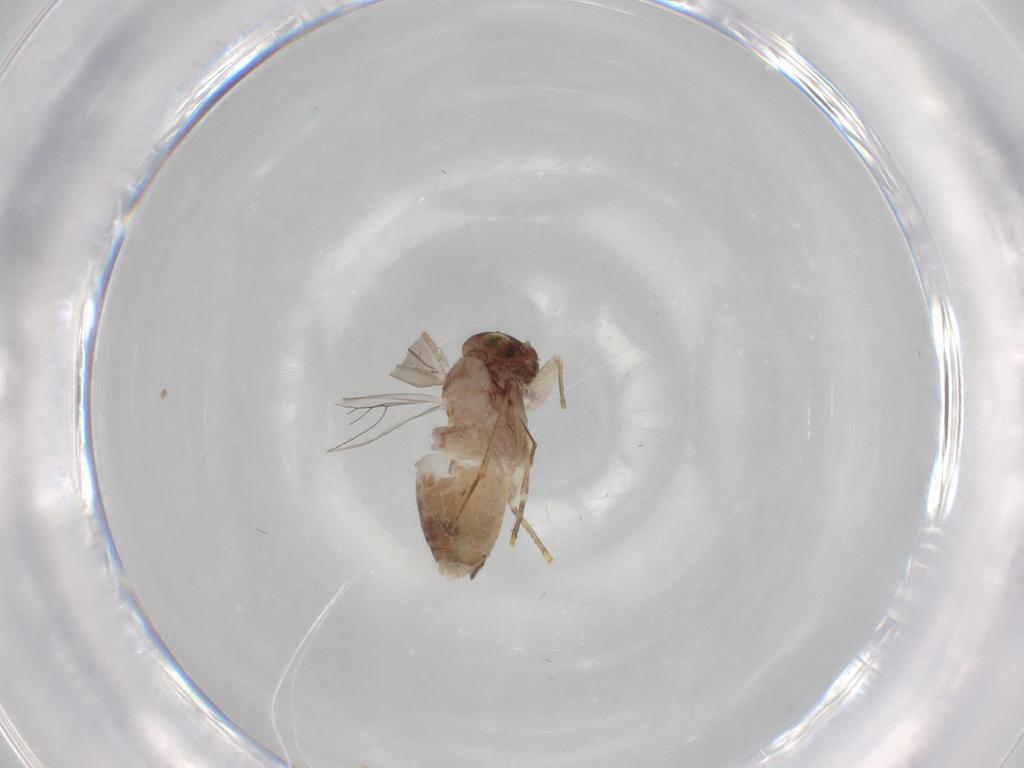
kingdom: Animalia
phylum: Arthropoda
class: Insecta
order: Psocodea
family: Lepidopsocidae
